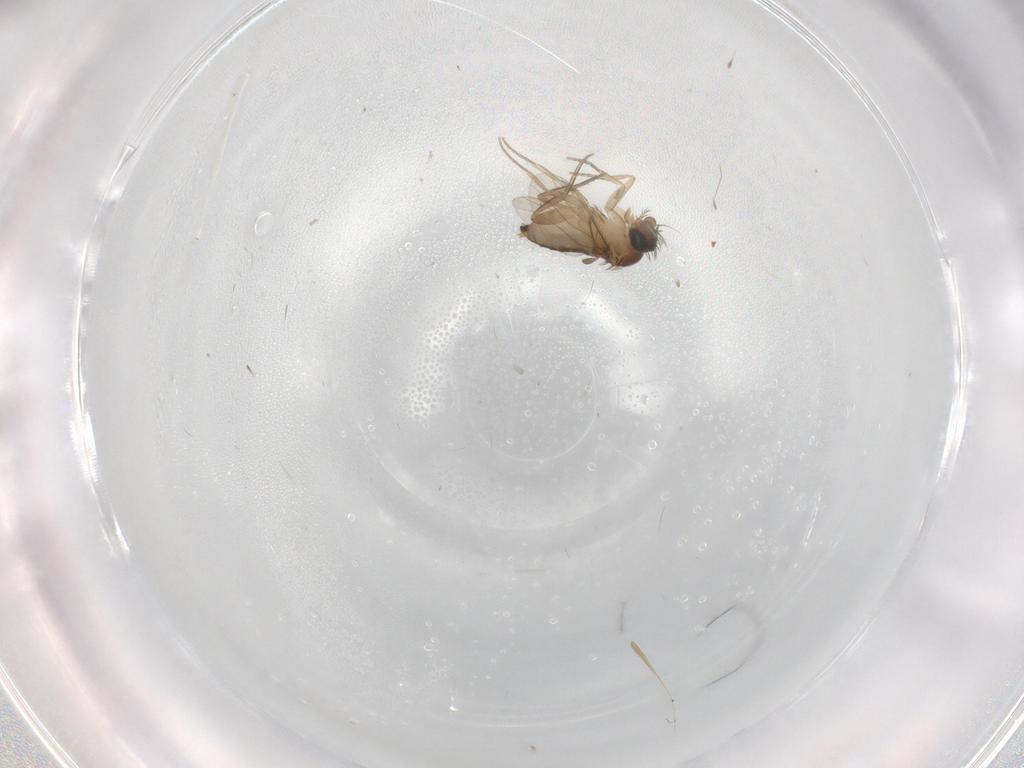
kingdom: Animalia
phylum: Arthropoda
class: Insecta
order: Diptera
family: Phoridae
